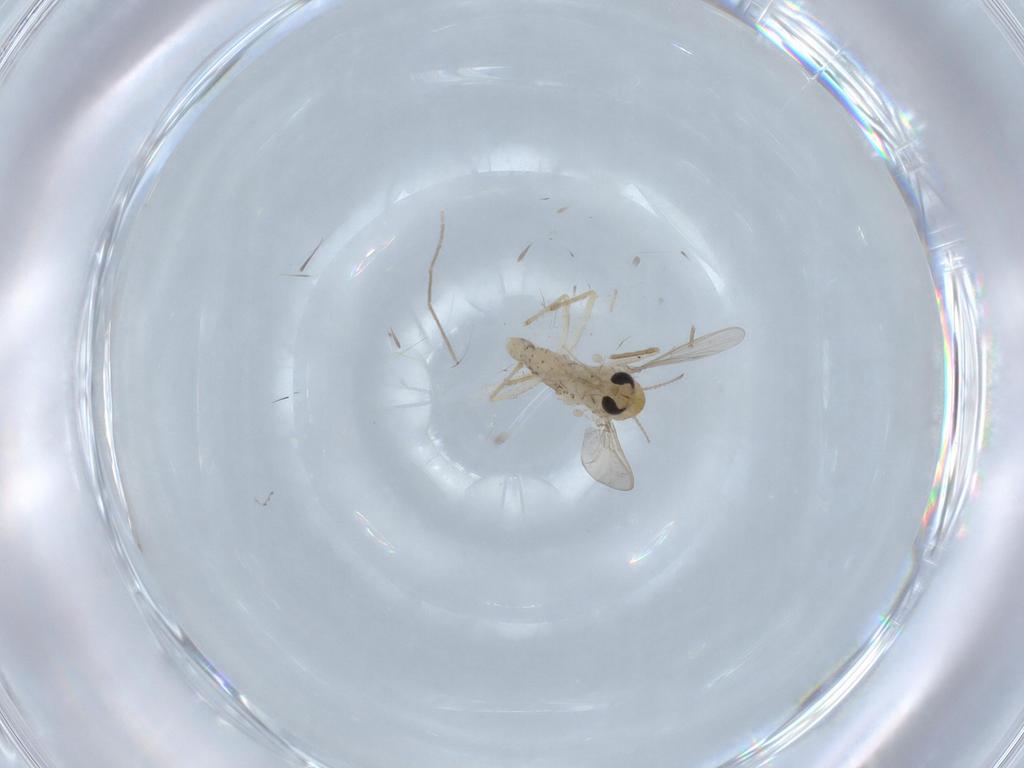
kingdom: Animalia
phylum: Arthropoda
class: Insecta
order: Diptera
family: Chironomidae
